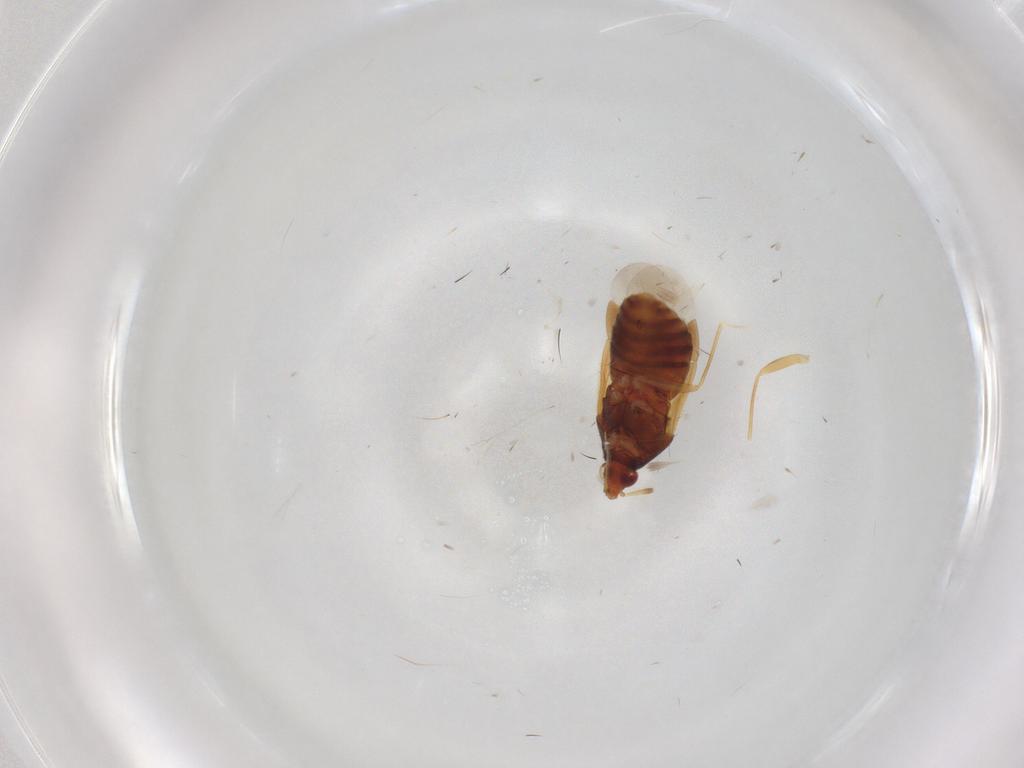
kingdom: Animalia
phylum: Arthropoda
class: Insecta
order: Hemiptera
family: Anthocoridae
